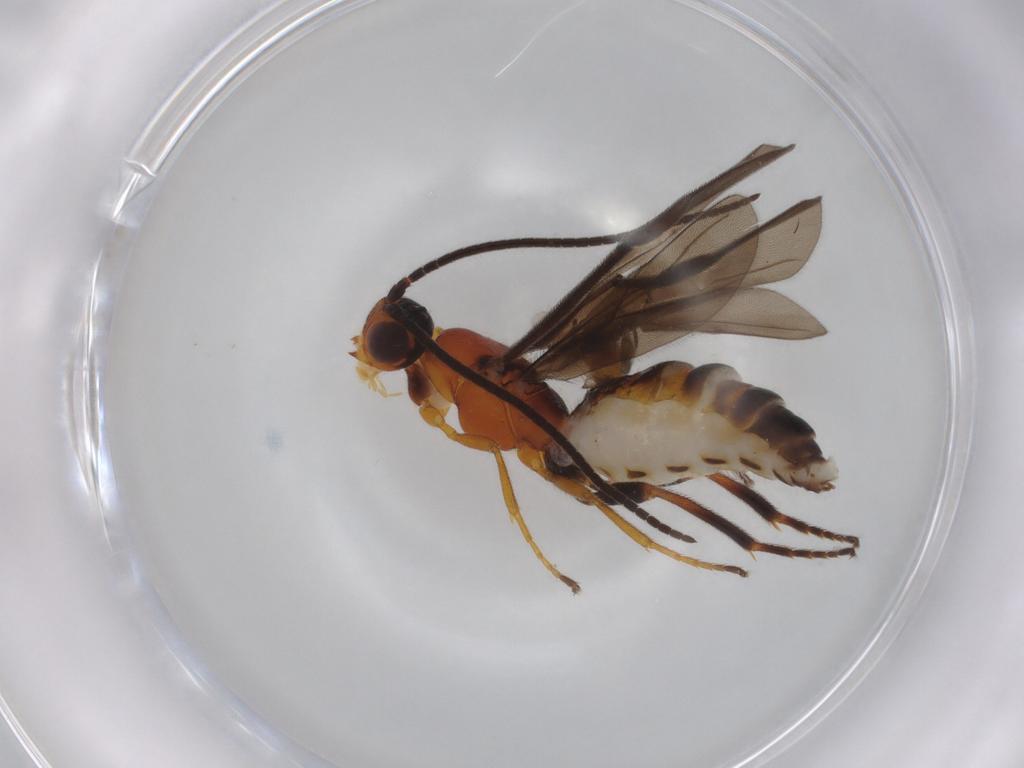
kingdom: Animalia
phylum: Arthropoda
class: Insecta
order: Hymenoptera
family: Braconidae
